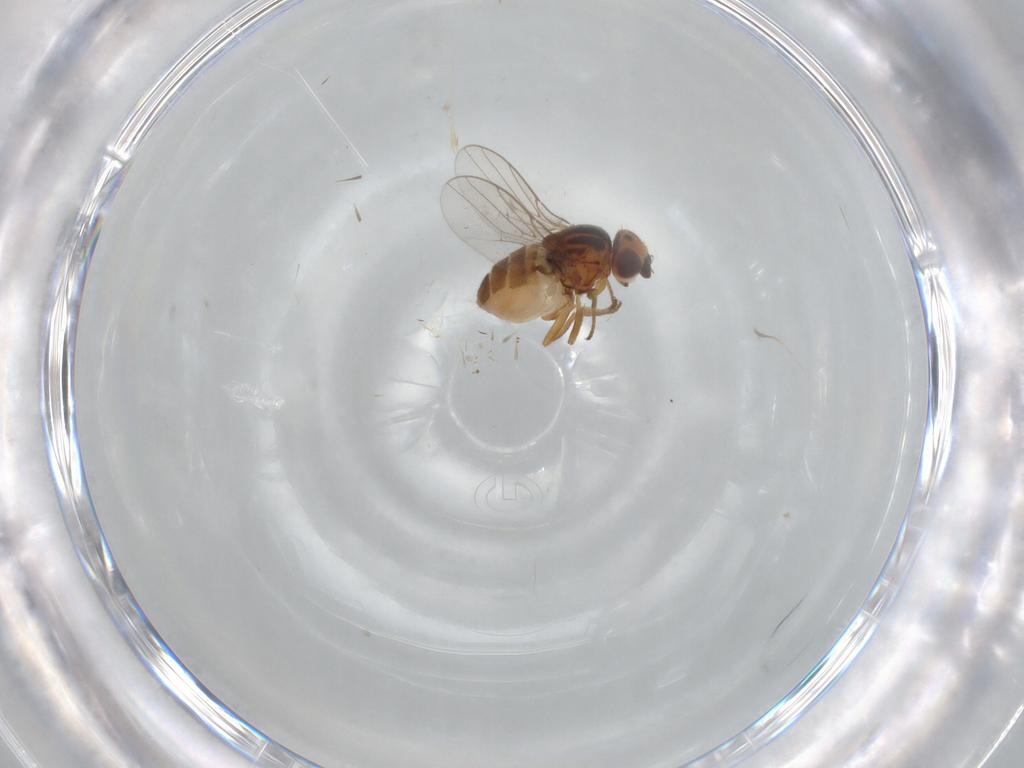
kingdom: Animalia
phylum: Arthropoda
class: Insecta
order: Diptera
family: Chloropidae
